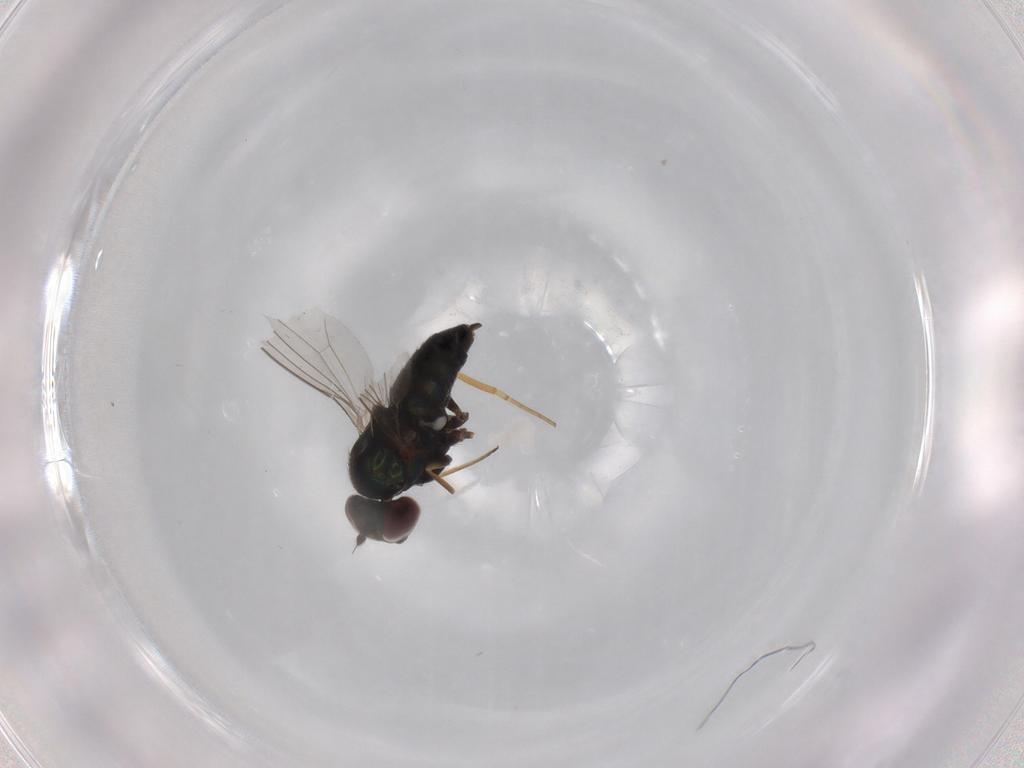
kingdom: Animalia
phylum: Arthropoda
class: Insecta
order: Diptera
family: Dolichopodidae
